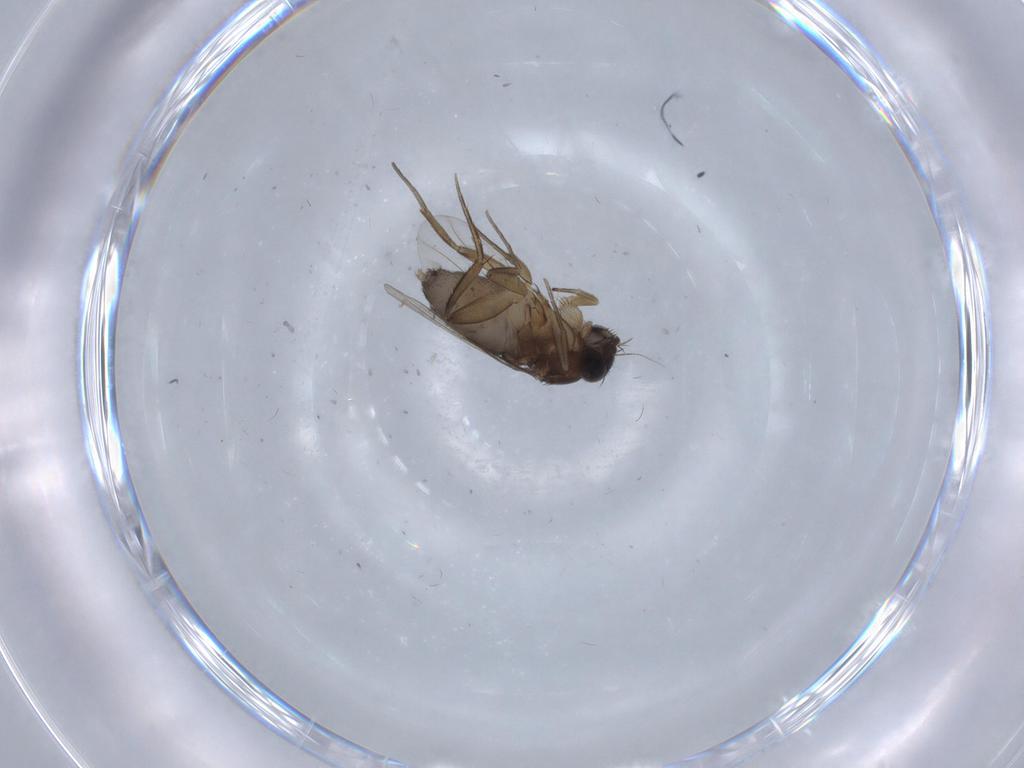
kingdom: Animalia
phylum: Arthropoda
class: Insecta
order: Diptera
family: Phoridae
